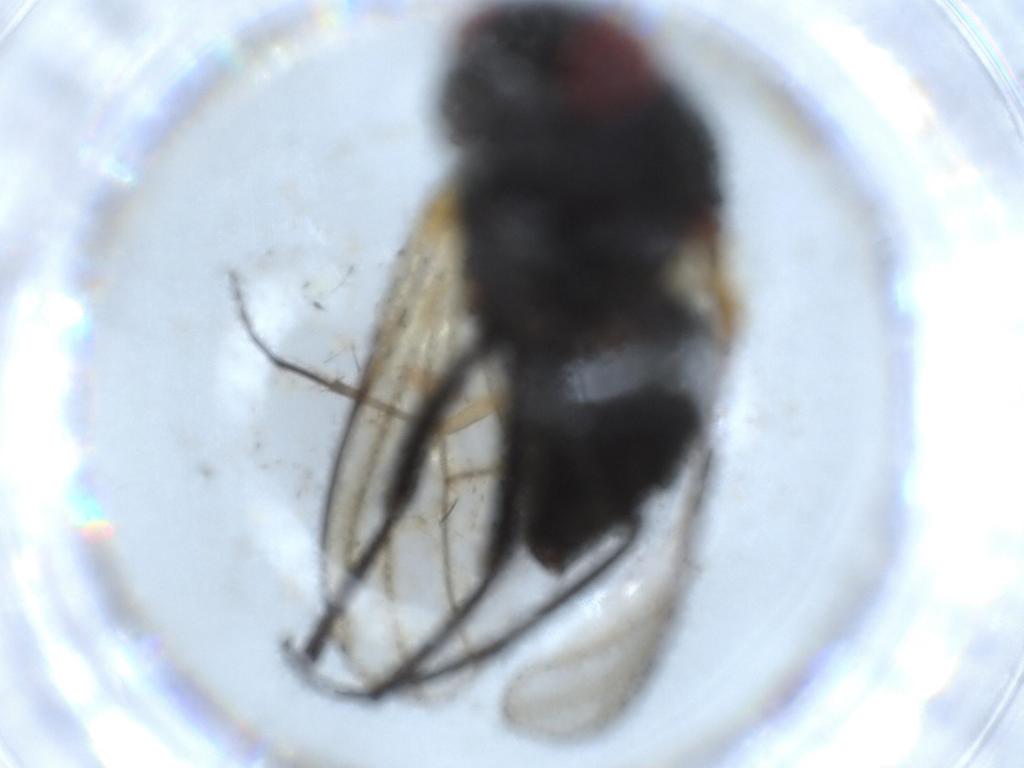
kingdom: Animalia
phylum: Arthropoda
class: Insecta
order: Diptera
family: Muscidae
